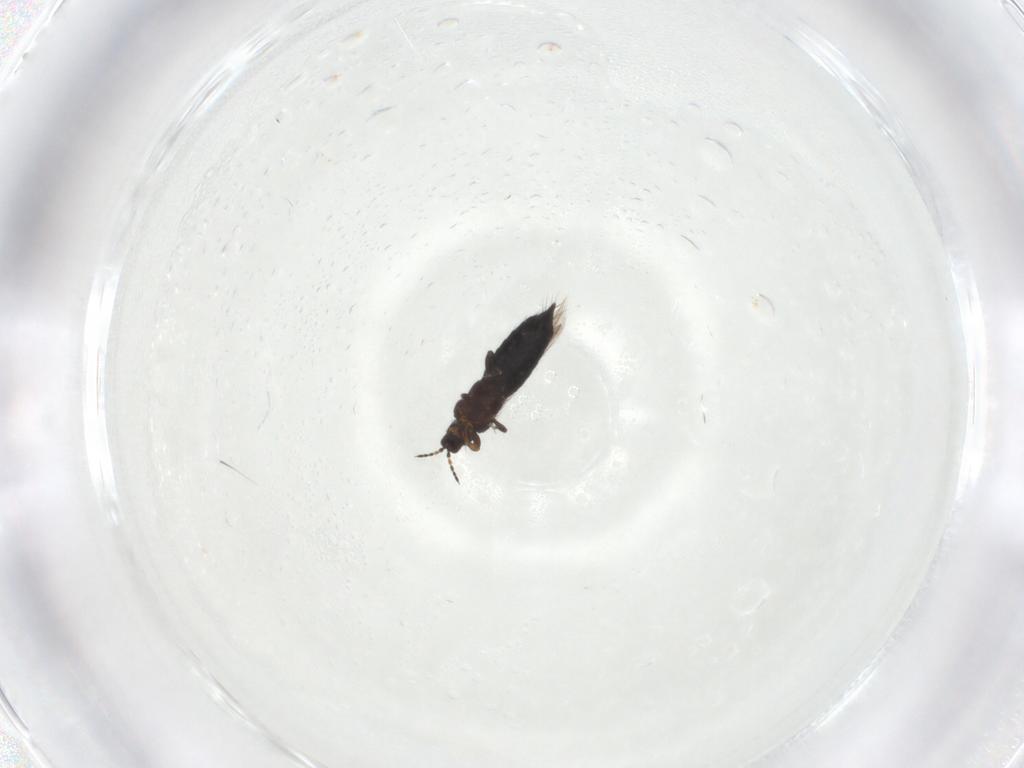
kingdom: Animalia
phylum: Arthropoda
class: Insecta
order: Thysanoptera
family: Thripidae
